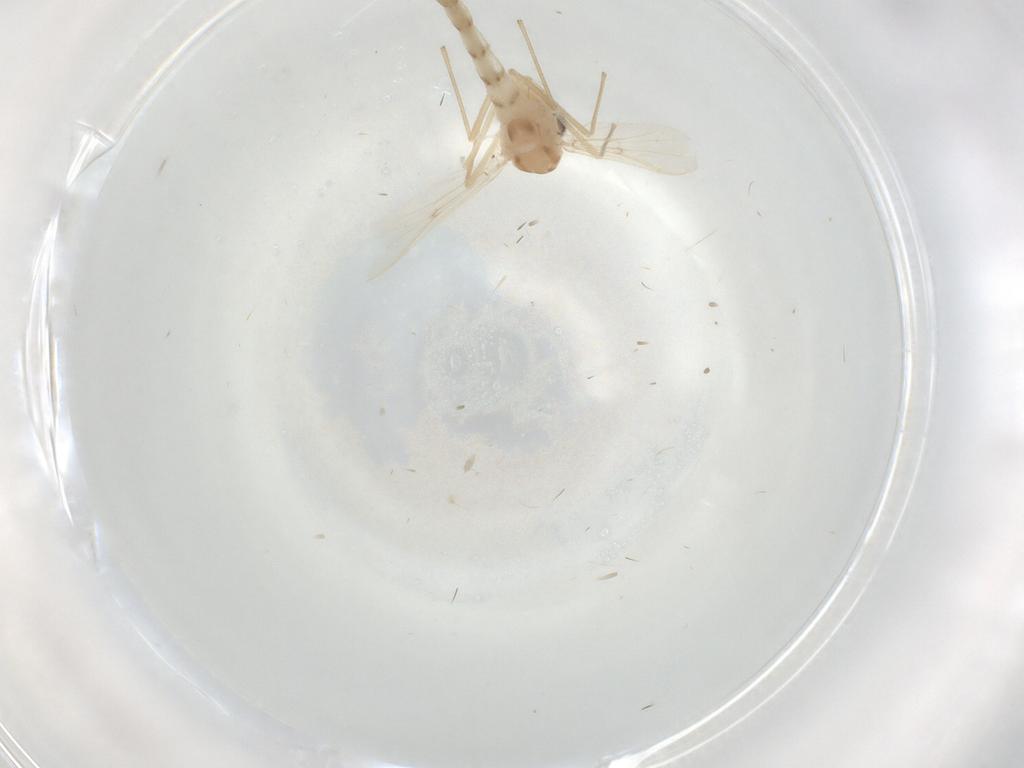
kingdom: Animalia
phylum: Arthropoda
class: Insecta
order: Diptera
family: Chironomidae
